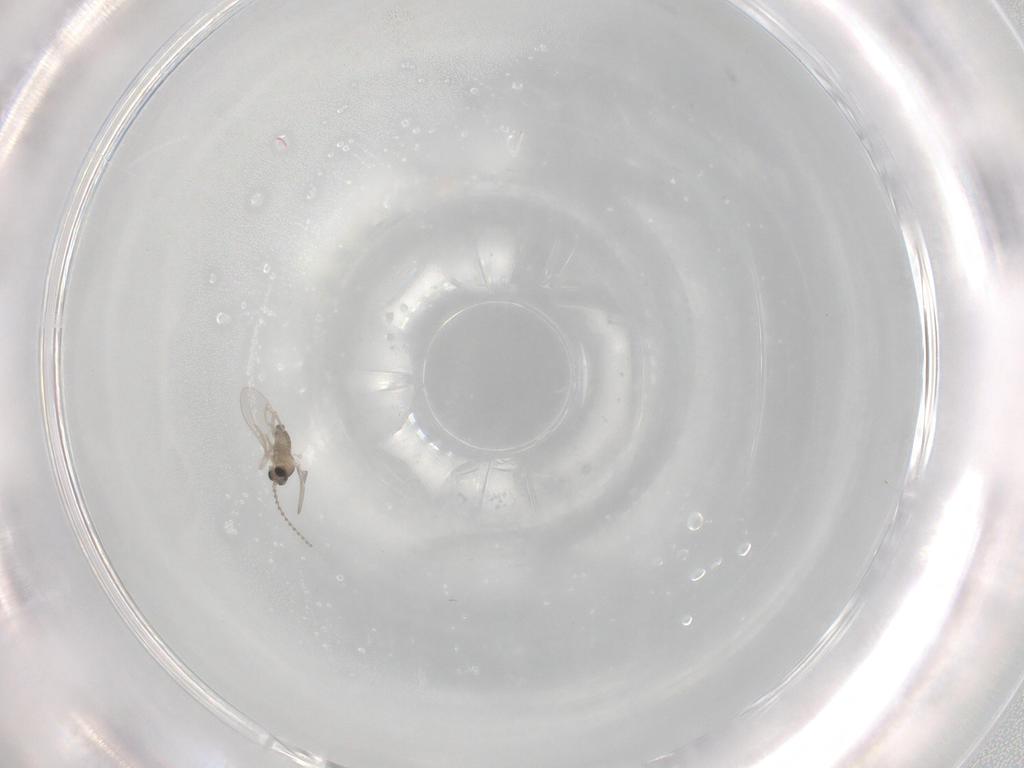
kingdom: Animalia
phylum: Arthropoda
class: Insecta
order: Diptera
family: Cecidomyiidae
